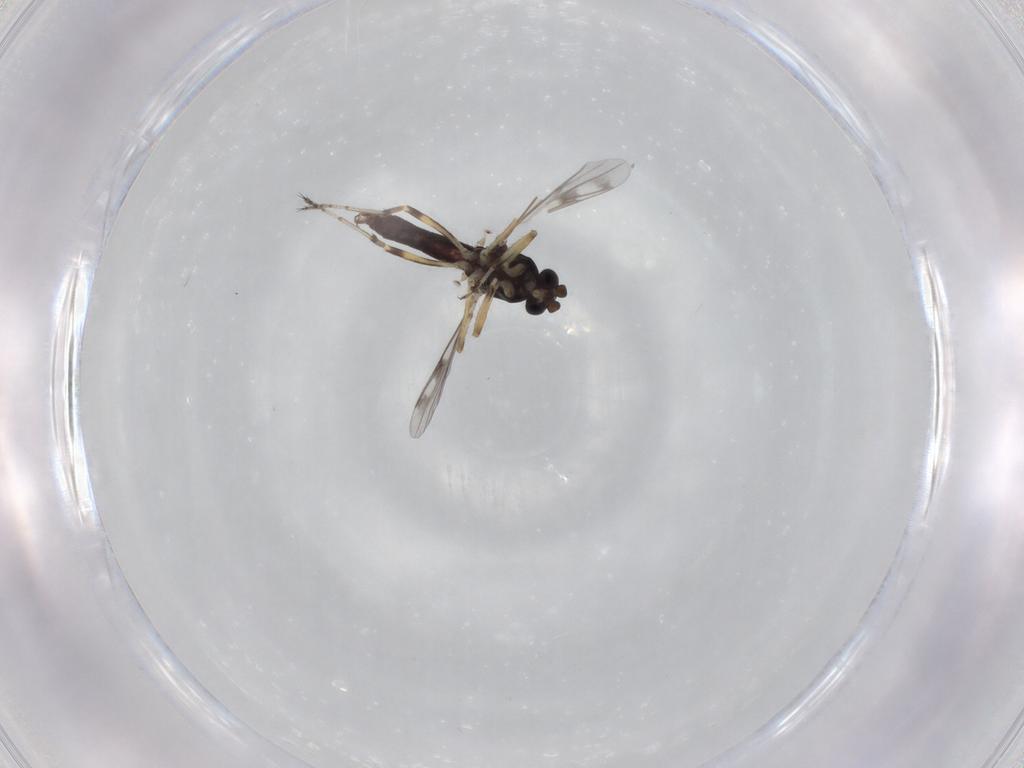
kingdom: Animalia
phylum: Arthropoda
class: Insecta
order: Diptera
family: Ceratopogonidae
